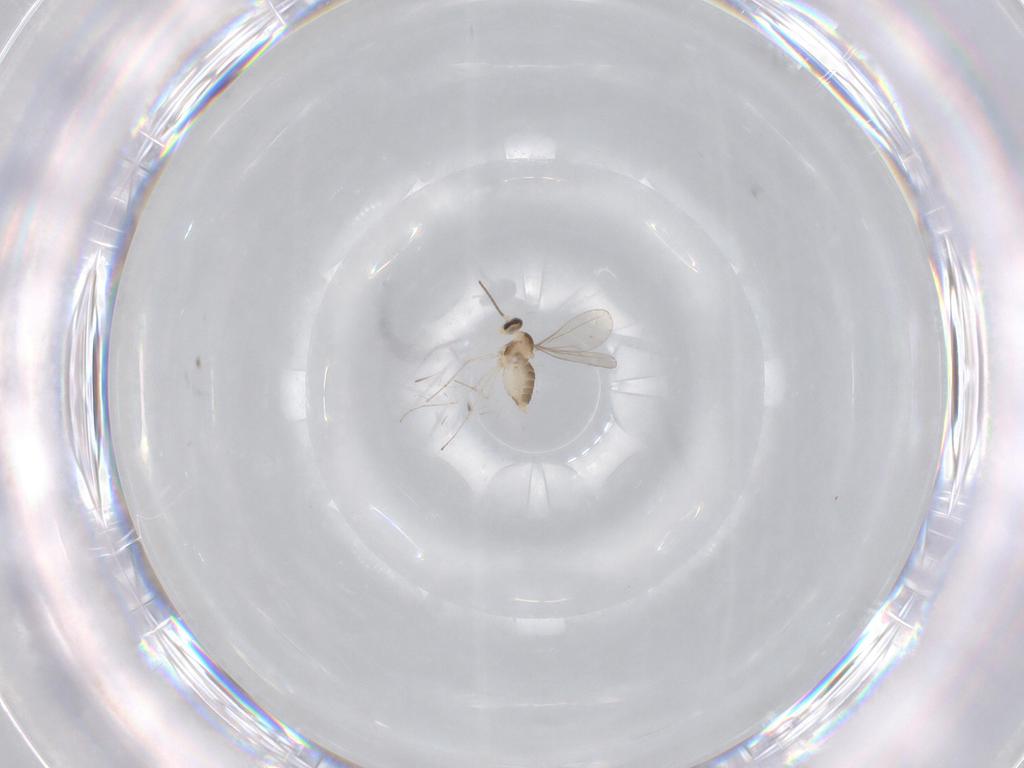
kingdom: Animalia
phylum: Arthropoda
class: Insecta
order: Diptera
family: Cecidomyiidae
